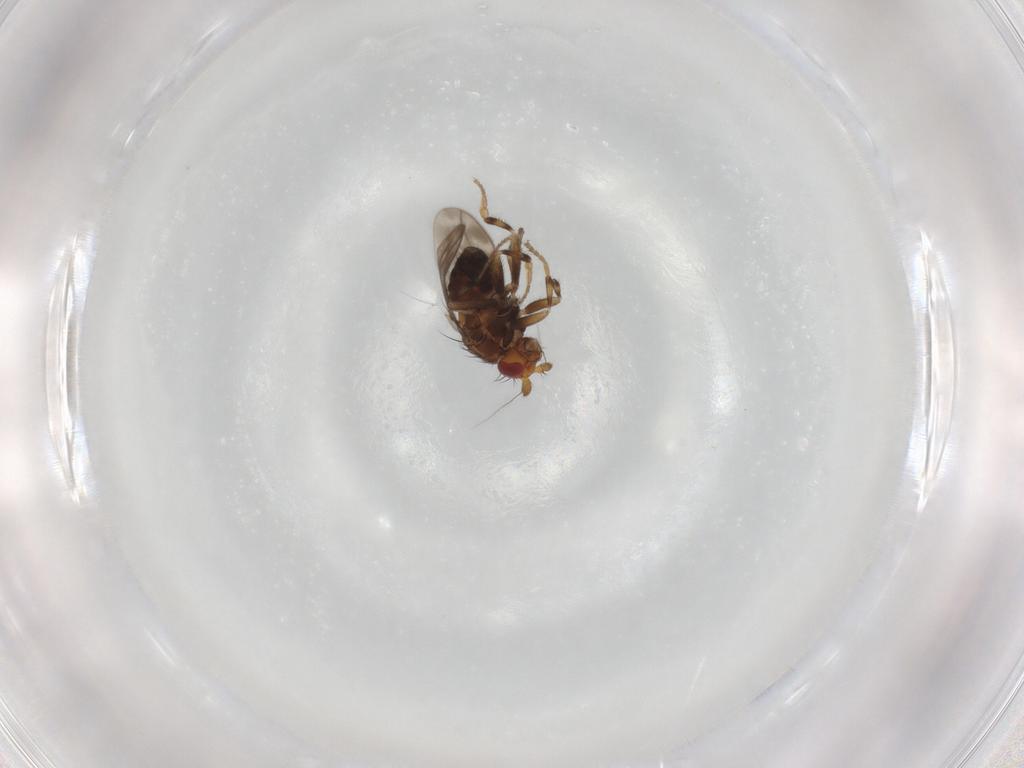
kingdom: Animalia
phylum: Arthropoda
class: Insecta
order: Diptera
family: Sphaeroceridae
